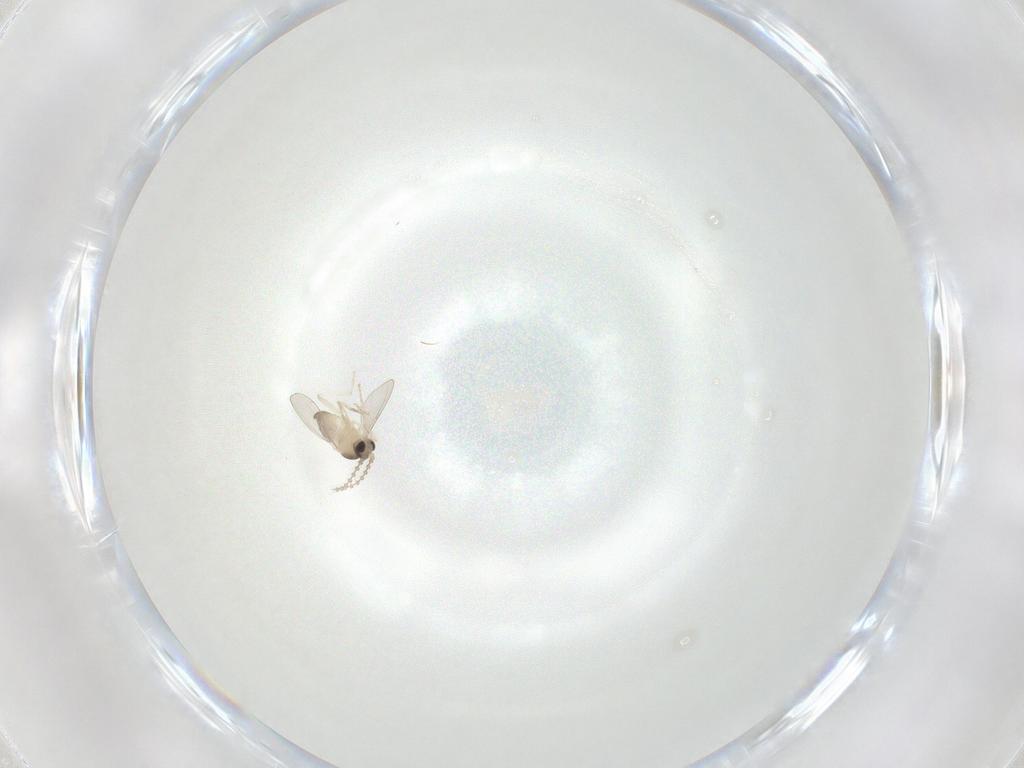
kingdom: Animalia
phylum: Arthropoda
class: Insecta
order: Diptera
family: Cecidomyiidae
